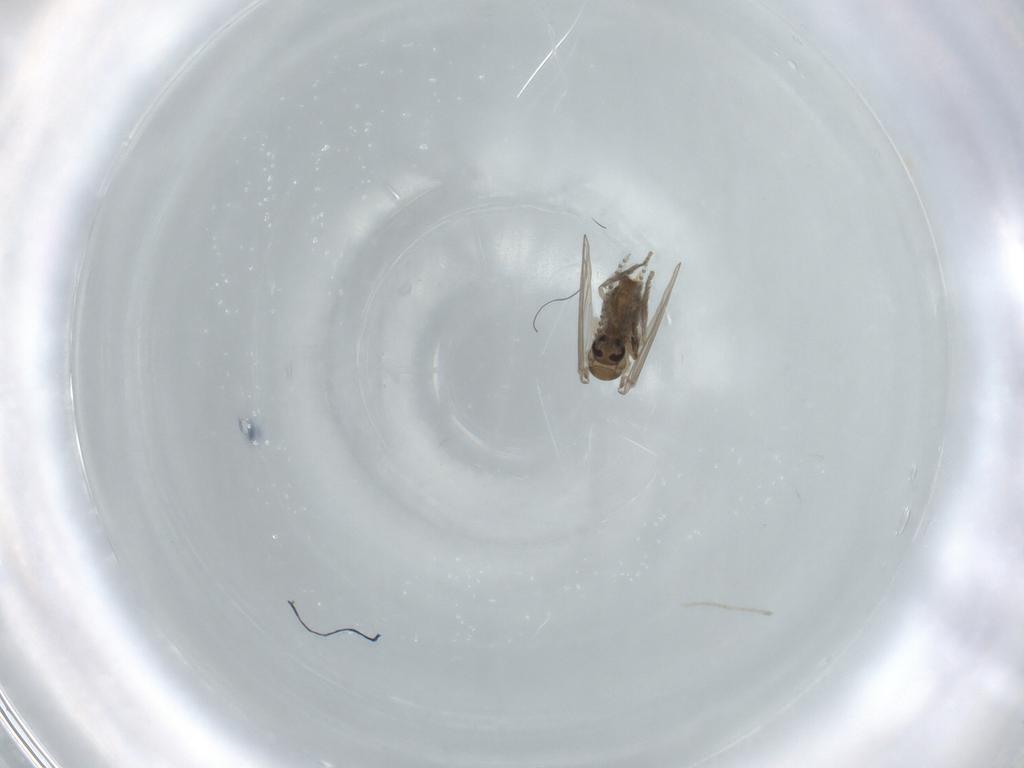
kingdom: Animalia
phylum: Arthropoda
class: Insecta
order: Diptera
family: Psychodidae
